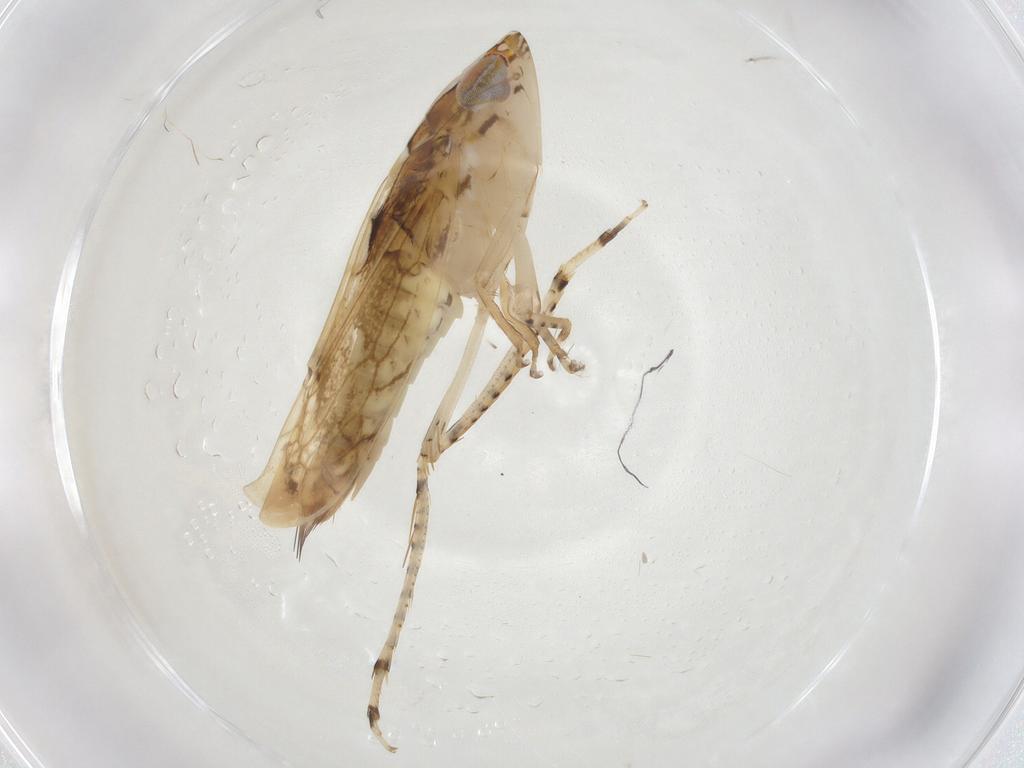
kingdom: Animalia
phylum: Arthropoda
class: Insecta
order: Hemiptera
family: Cicadellidae
